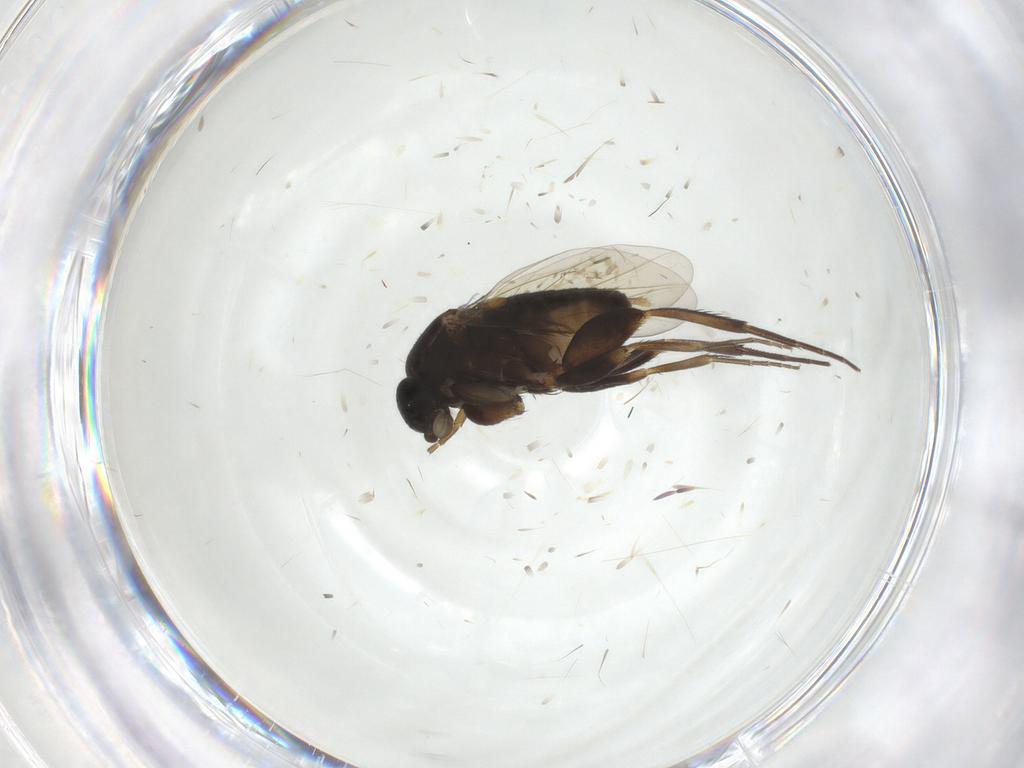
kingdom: Animalia
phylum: Arthropoda
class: Insecta
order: Diptera
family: Phoridae
